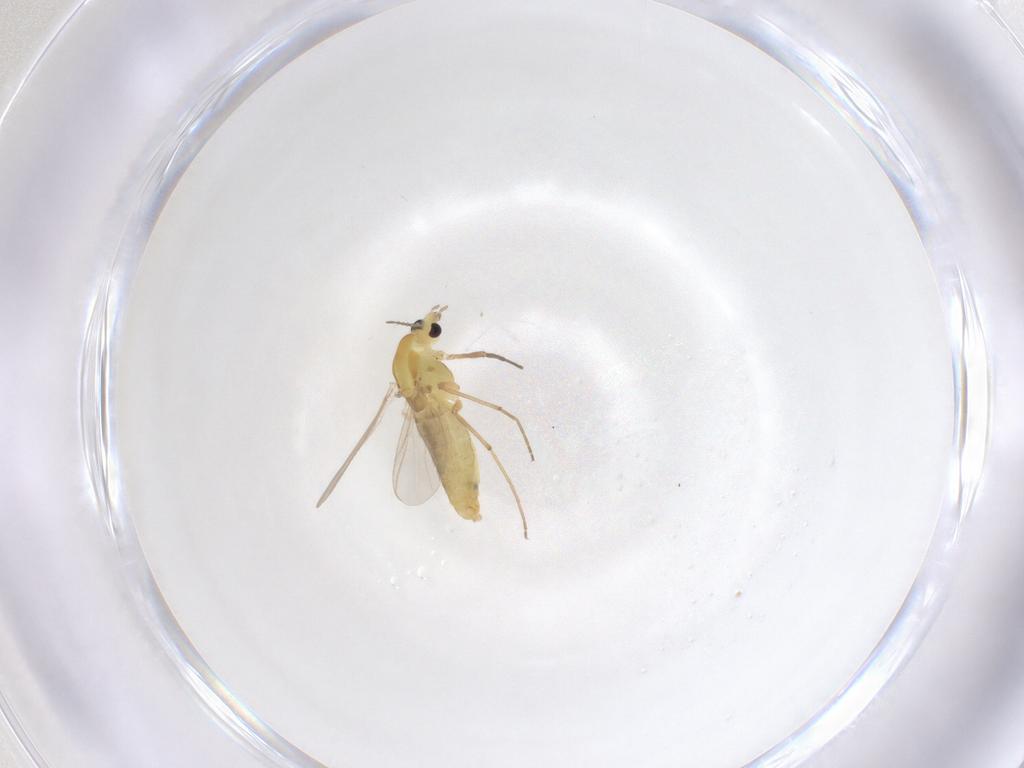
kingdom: Animalia
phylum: Arthropoda
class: Insecta
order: Diptera
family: Chironomidae
